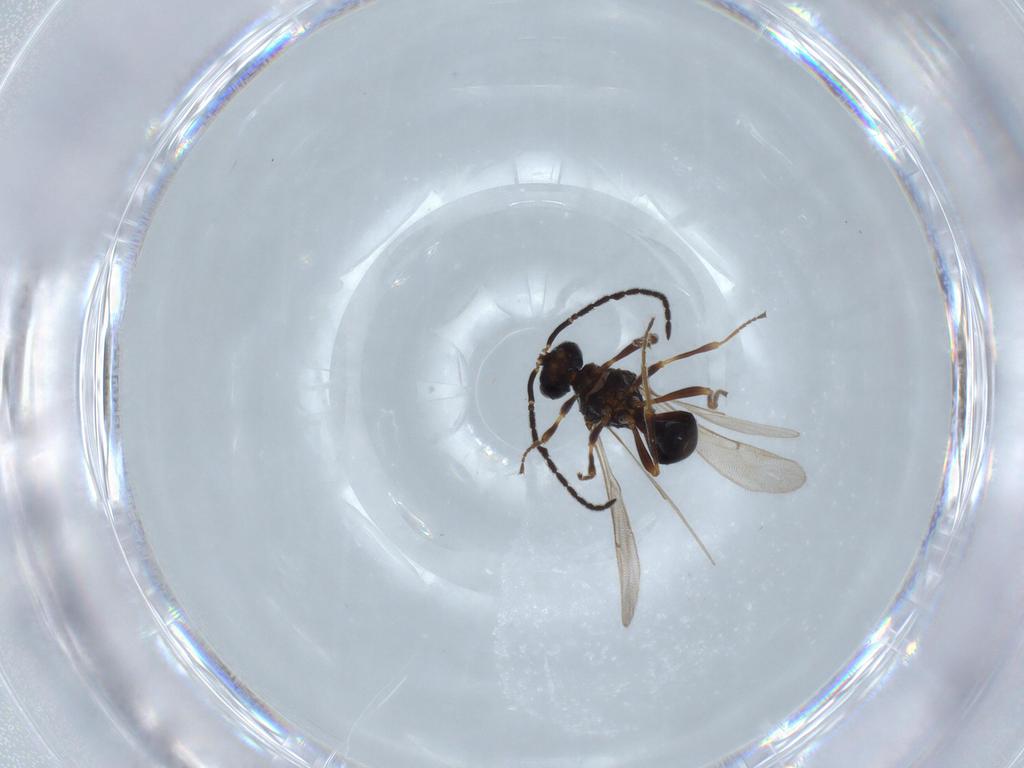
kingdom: Animalia
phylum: Arthropoda
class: Insecta
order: Hymenoptera
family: Scelionidae
